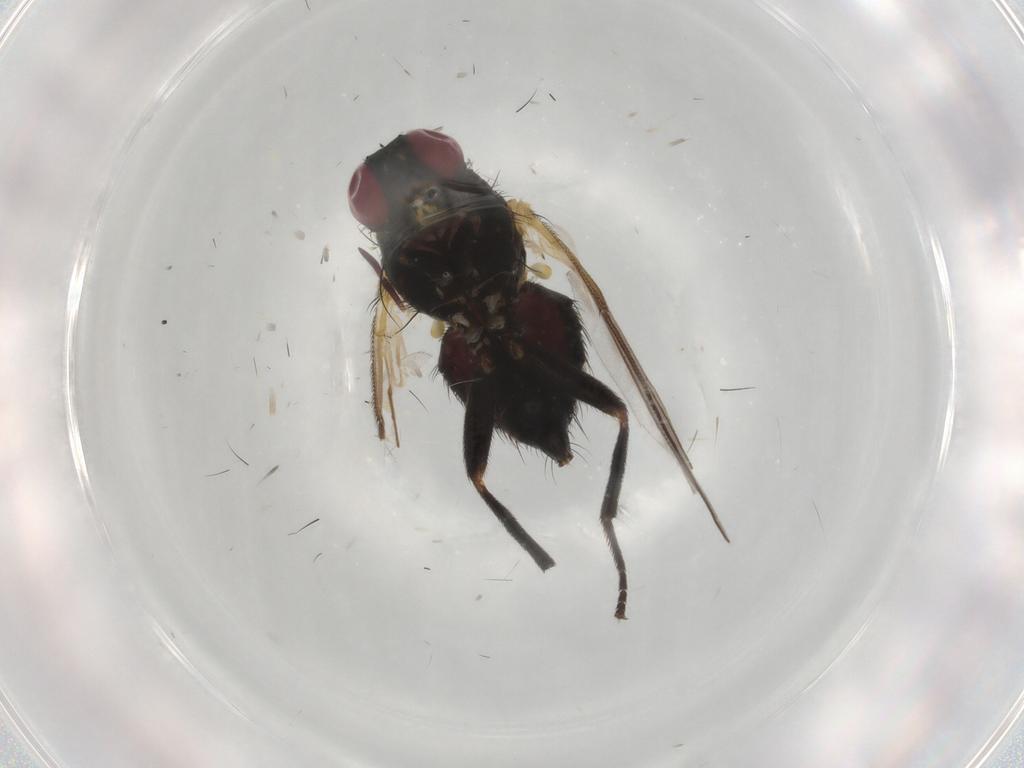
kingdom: Animalia
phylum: Arthropoda
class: Insecta
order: Diptera
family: Agromyzidae
